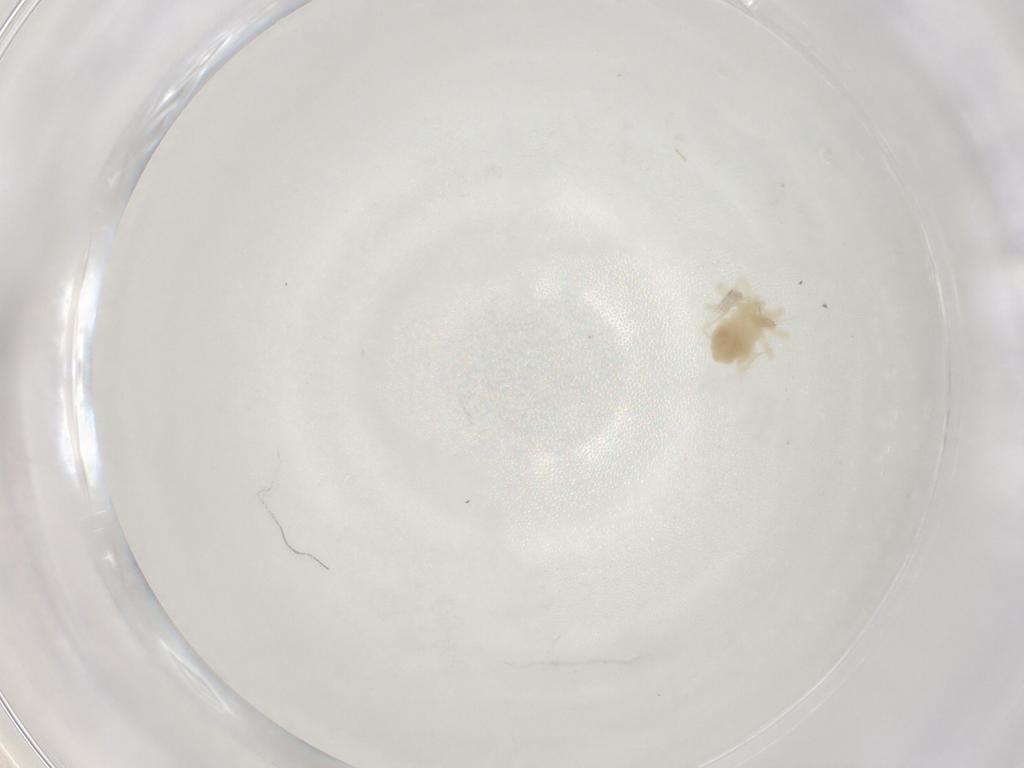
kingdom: Animalia
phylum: Arthropoda
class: Arachnida
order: Trombidiformes
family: Anystidae
